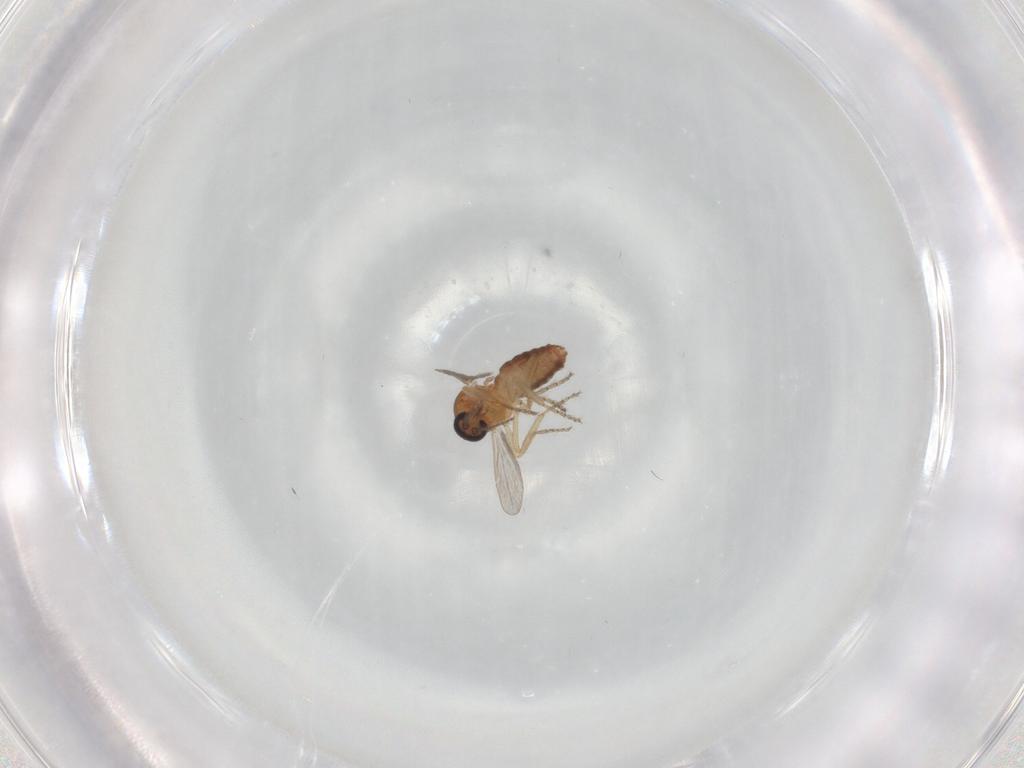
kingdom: Animalia
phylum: Arthropoda
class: Insecta
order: Diptera
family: Ceratopogonidae
